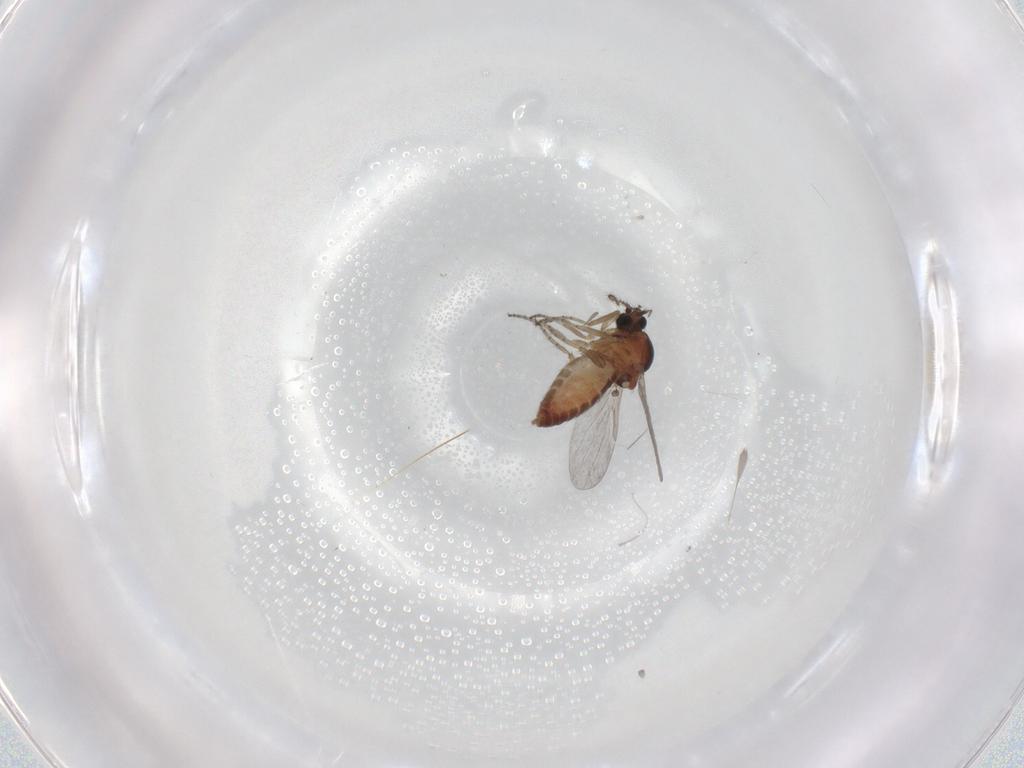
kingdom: Animalia
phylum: Arthropoda
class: Insecta
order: Diptera
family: Ceratopogonidae
